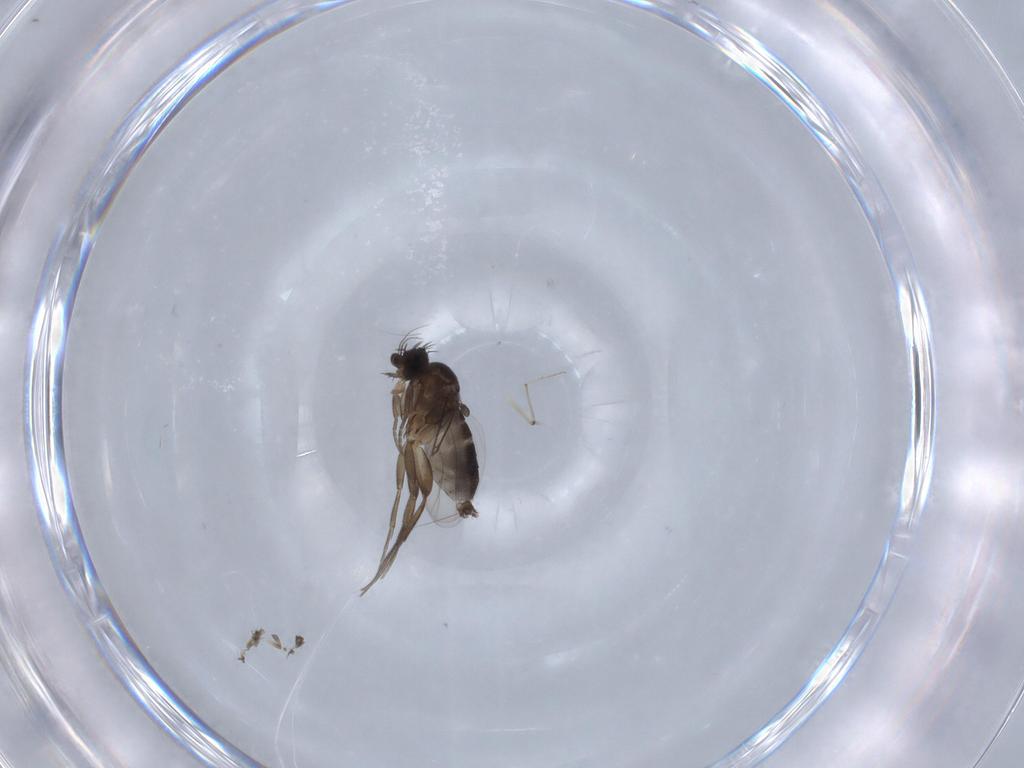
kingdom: Animalia
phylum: Arthropoda
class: Insecta
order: Diptera
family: Phoridae
